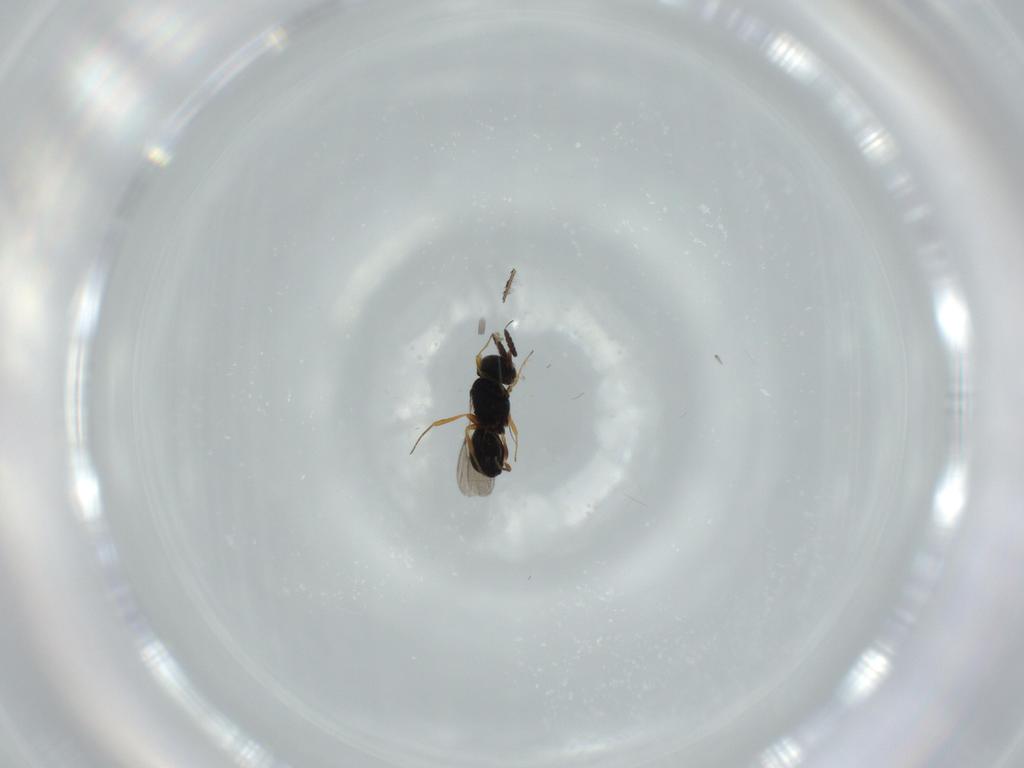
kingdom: Animalia
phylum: Arthropoda
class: Insecta
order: Hymenoptera
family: Scelionidae
